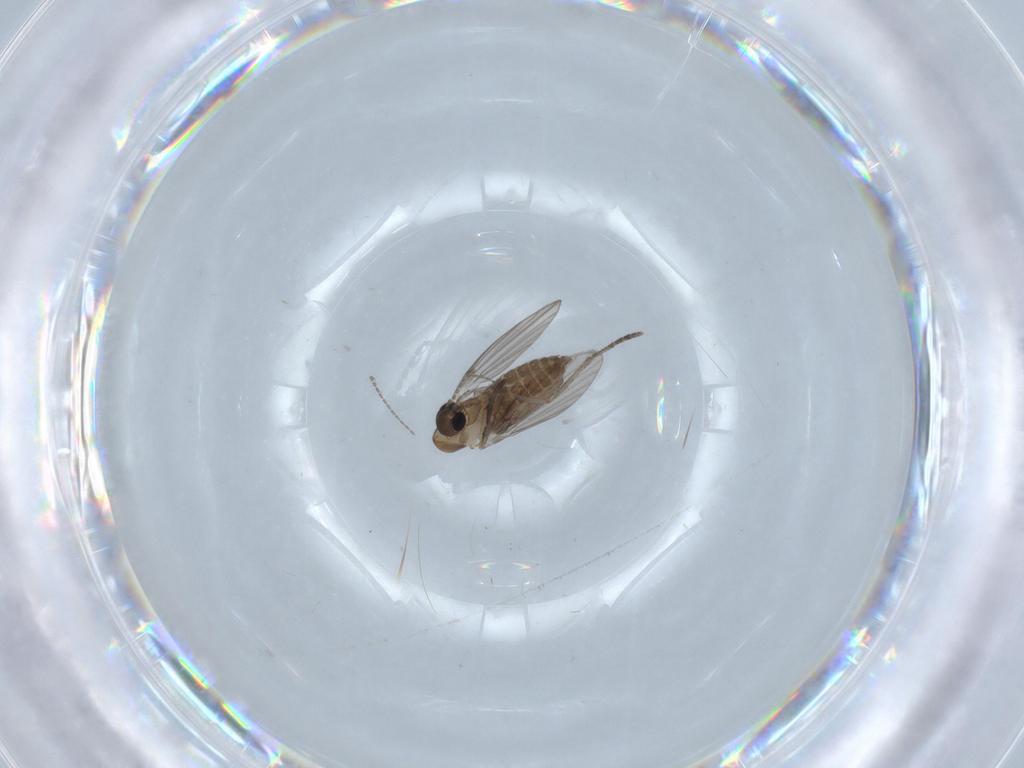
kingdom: Animalia
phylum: Arthropoda
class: Insecta
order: Diptera
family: Psychodidae
